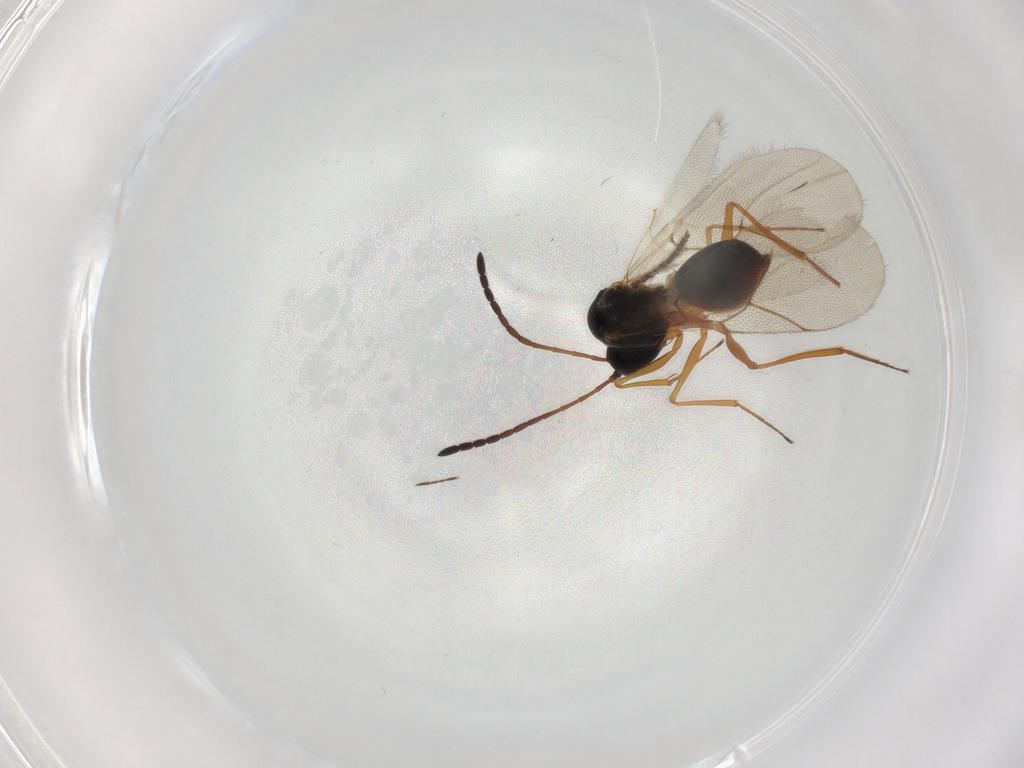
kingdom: Animalia
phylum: Arthropoda
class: Insecta
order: Hymenoptera
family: Figitidae
